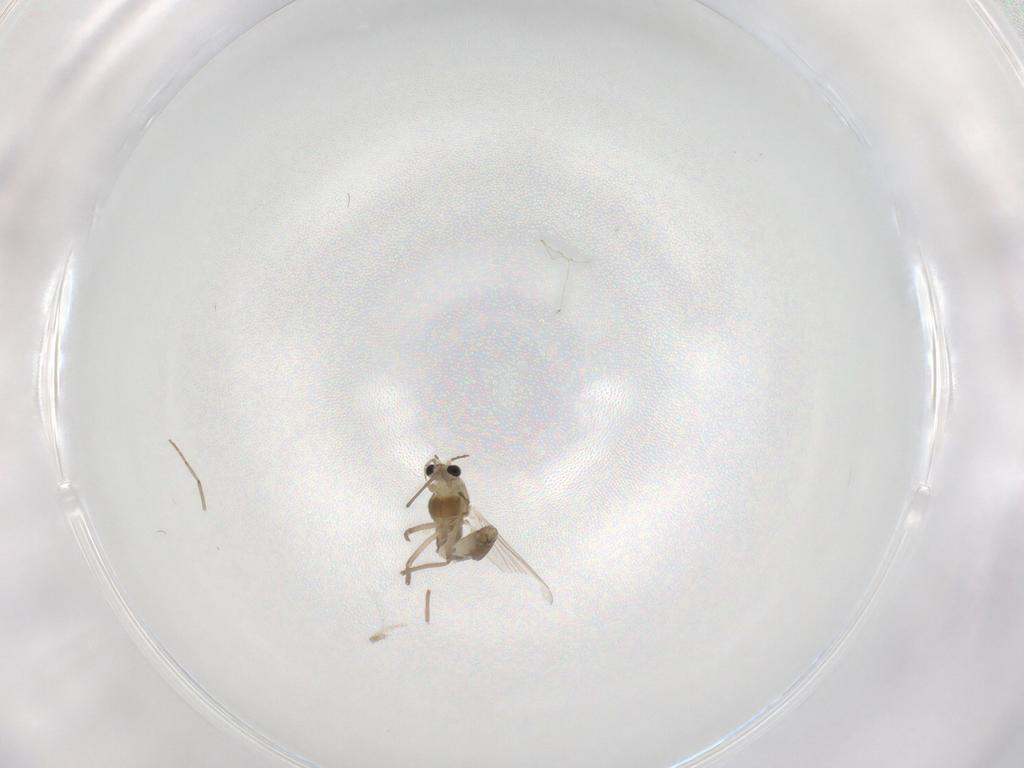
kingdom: Animalia
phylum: Arthropoda
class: Insecta
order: Diptera
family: Chironomidae
